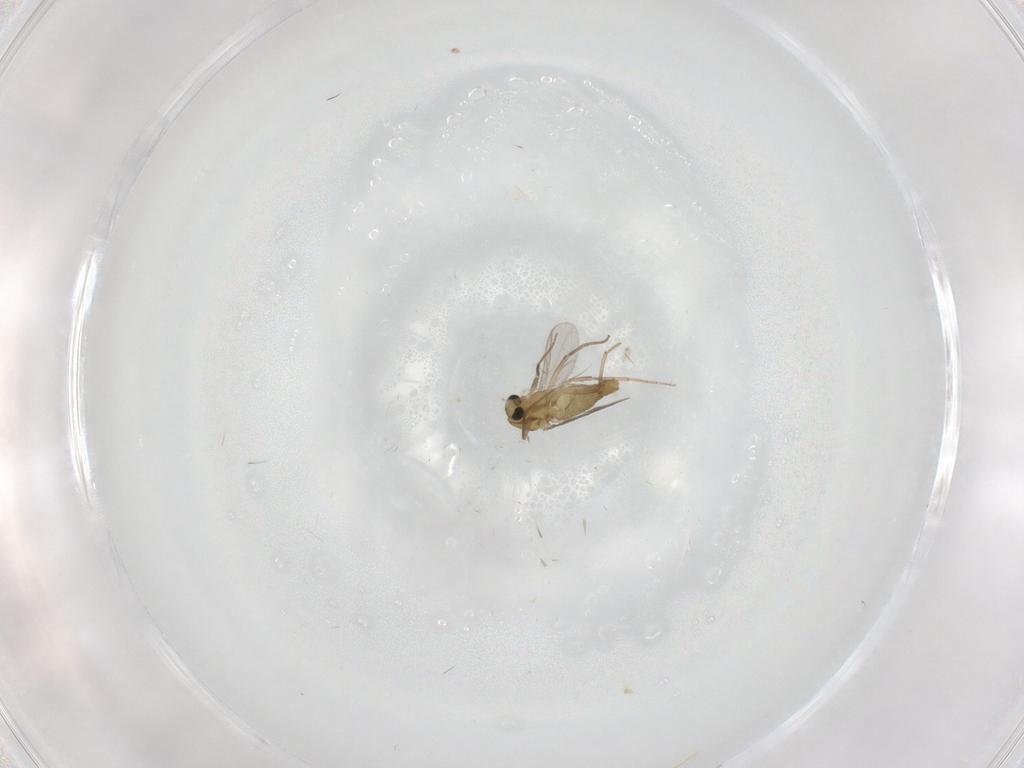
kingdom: Animalia
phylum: Arthropoda
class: Insecta
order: Diptera
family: Chironomidae
